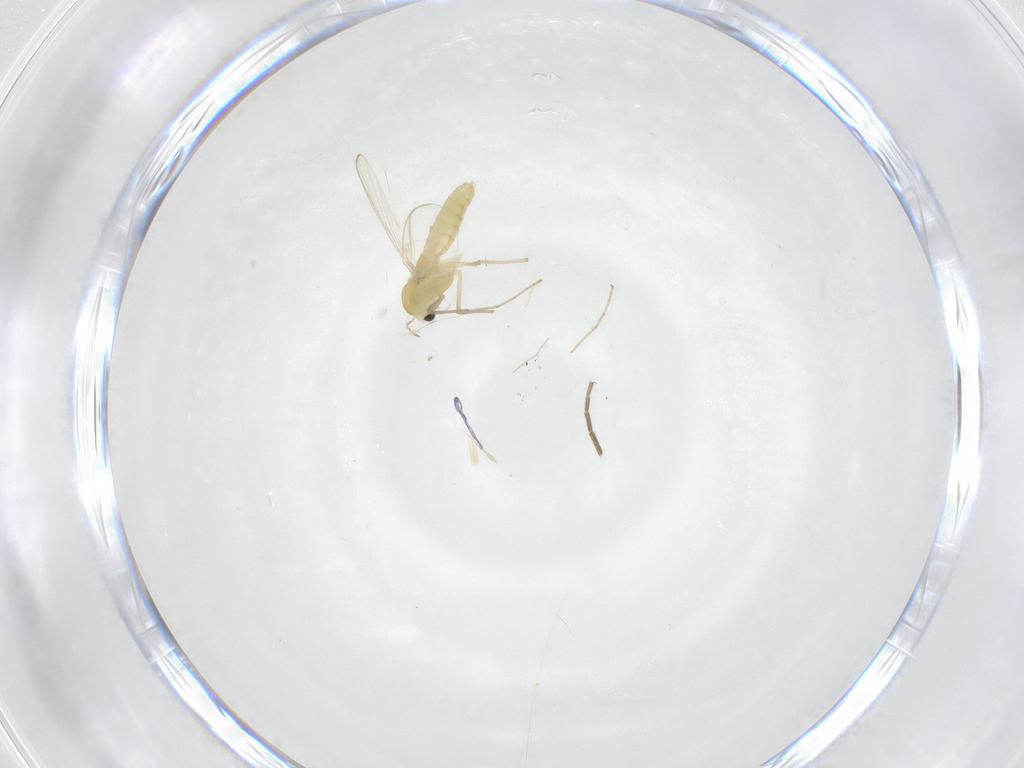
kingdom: Animalia
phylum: Arthropoda
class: Insecta
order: Diptera
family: Chironomidae
